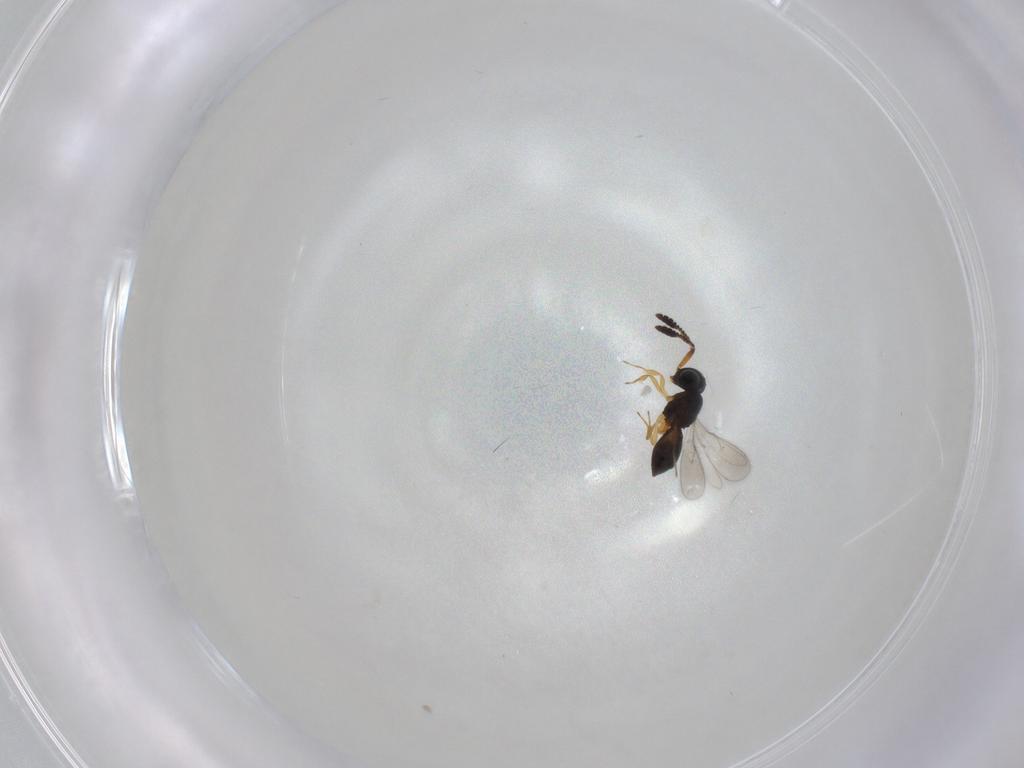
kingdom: Animalia
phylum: Arthropoda
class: Insecta
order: Hymenoptera
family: Scelionidae
